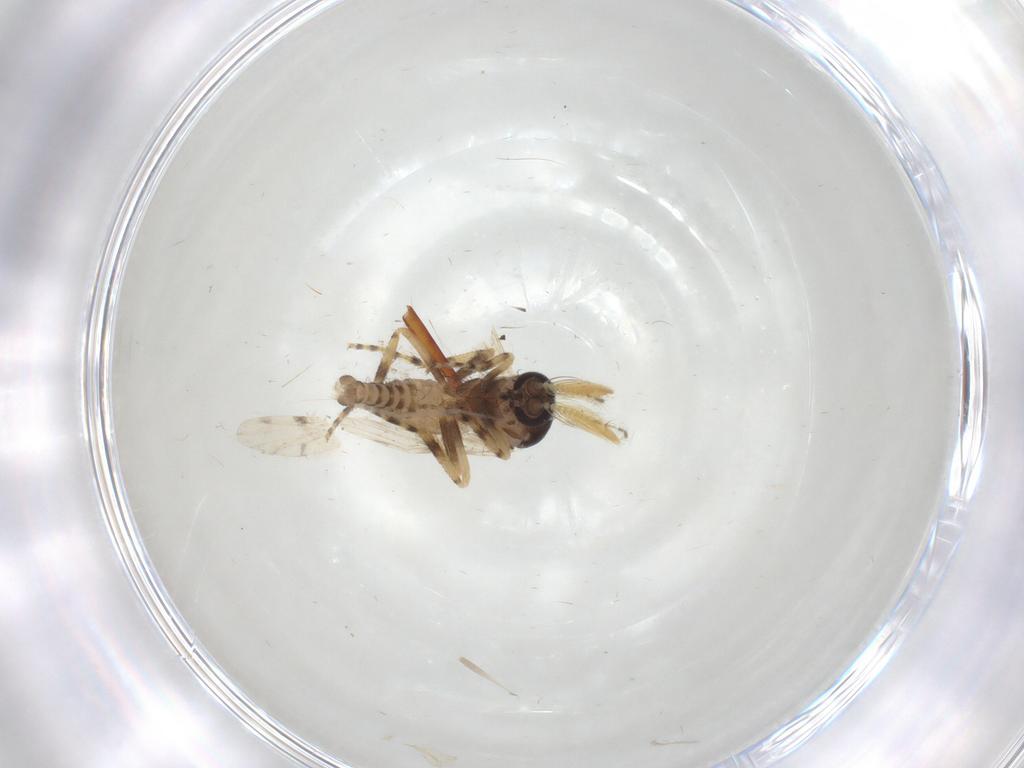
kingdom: Animalia
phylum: Arthropoda
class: Insecta
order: Diptera
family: Ceratopogonidae
